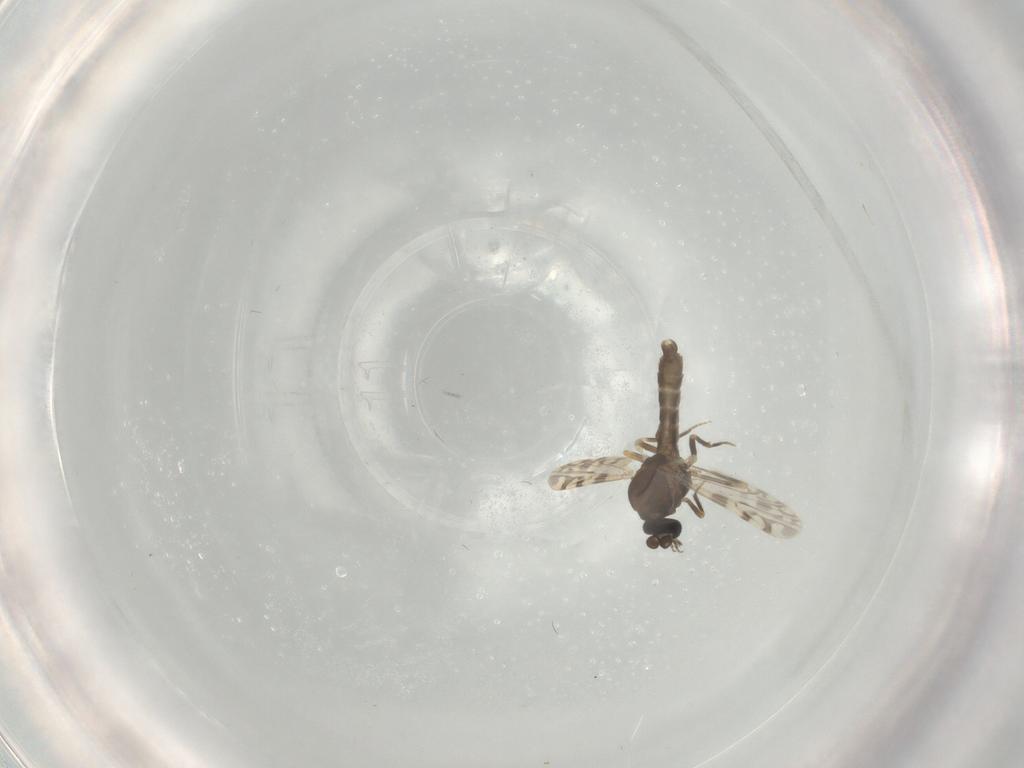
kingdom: Animalia
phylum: Arthropoda
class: Insecta
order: Diptera
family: Ceratopogonidae
